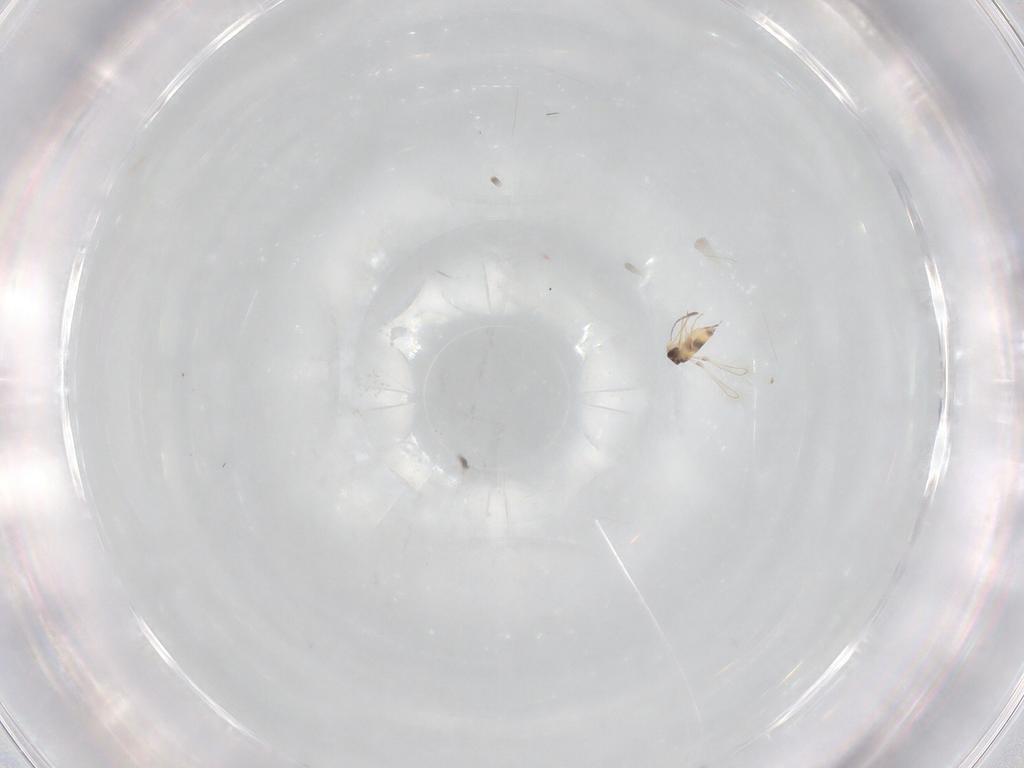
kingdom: Animalia
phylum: Arthropoda
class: Insecta
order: Hymenoptera
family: Mymaridae
